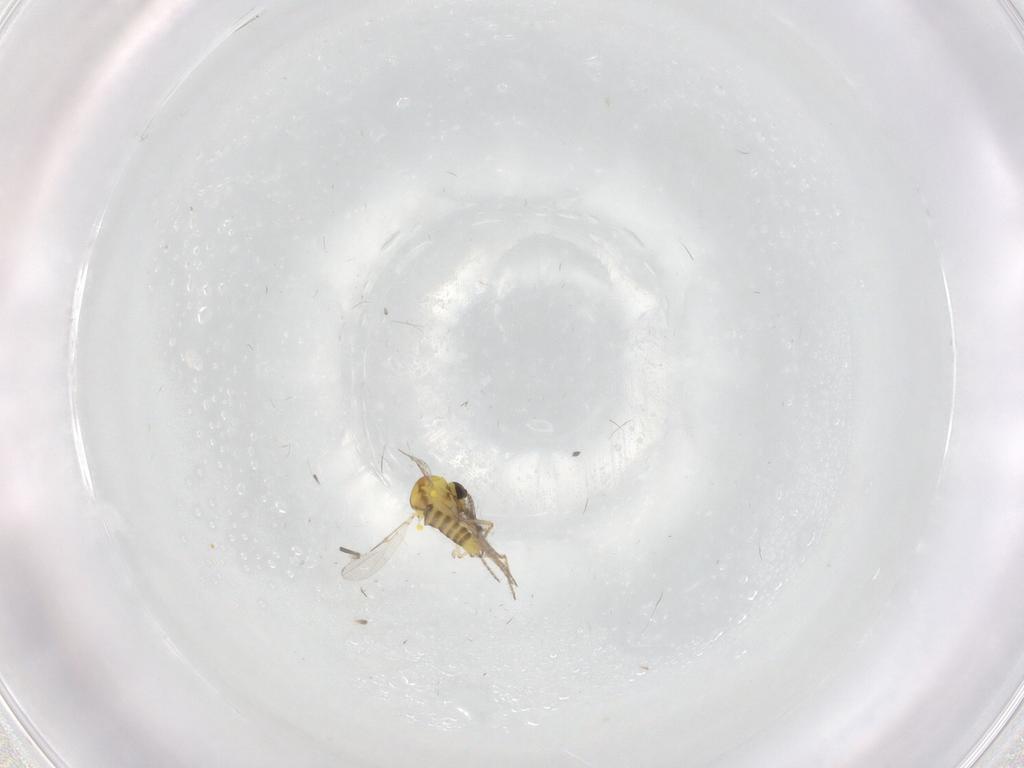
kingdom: Animalia
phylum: Arthropoda
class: Insecta
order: Diptera
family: Ceratopogonidae
